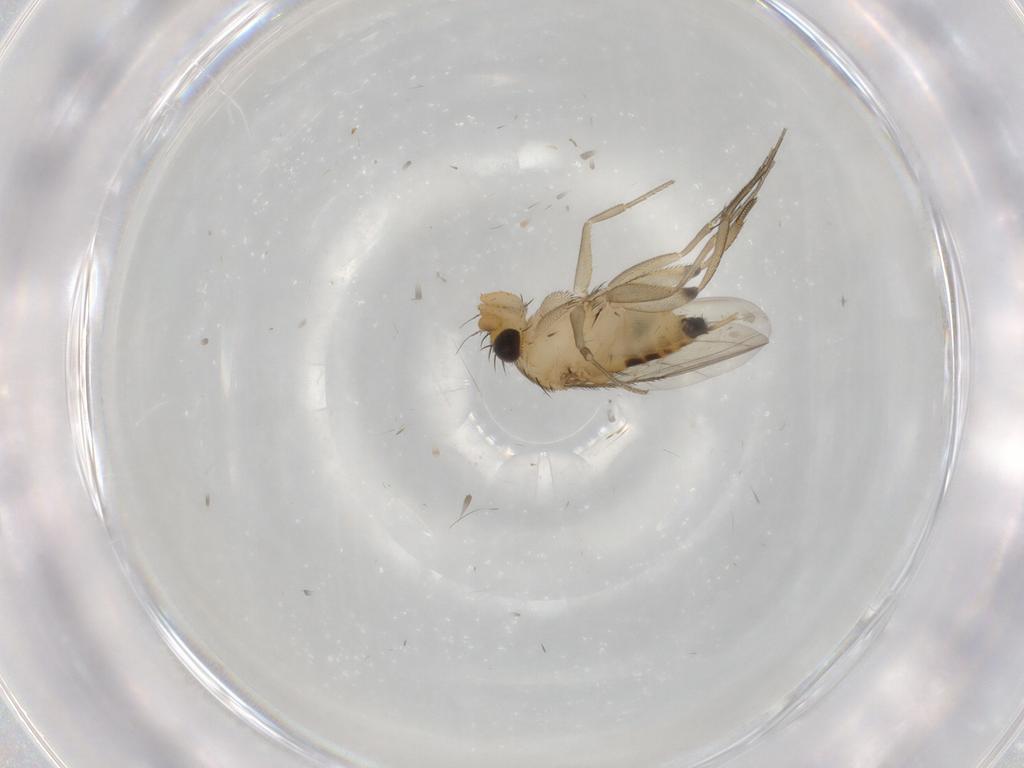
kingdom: Animalia
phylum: Arthropoda
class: Insecta
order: Diptera
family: Phoridae
